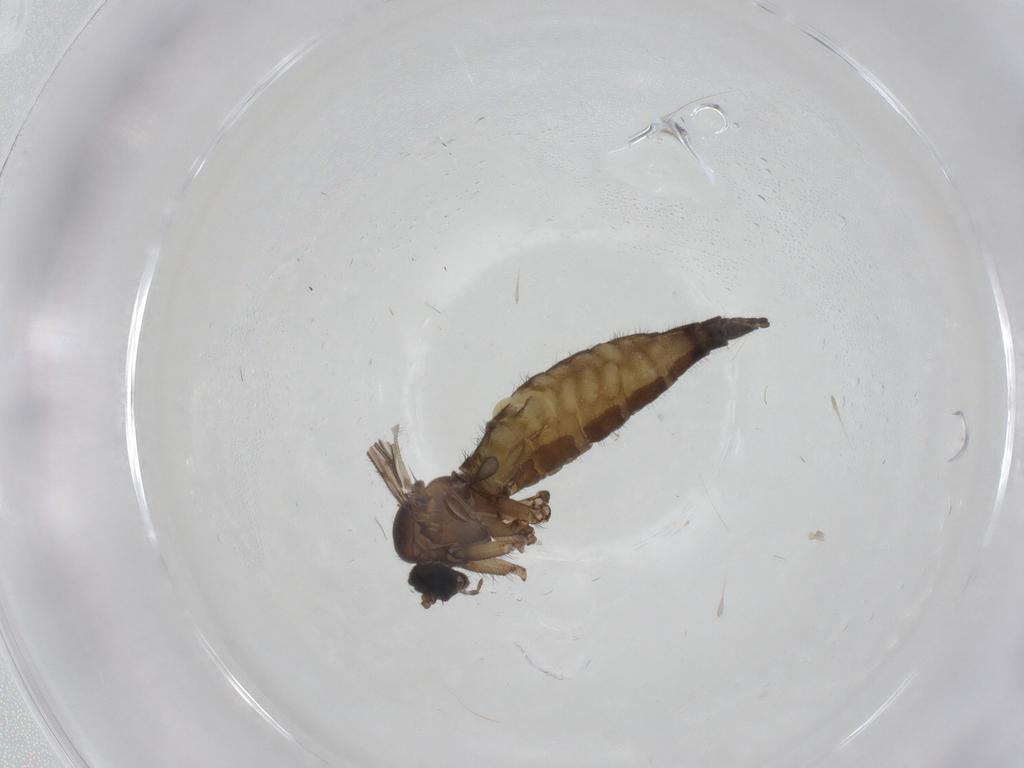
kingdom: Animalia
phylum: Arthropoda
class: Insecta
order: Diptera
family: Sciaridae
